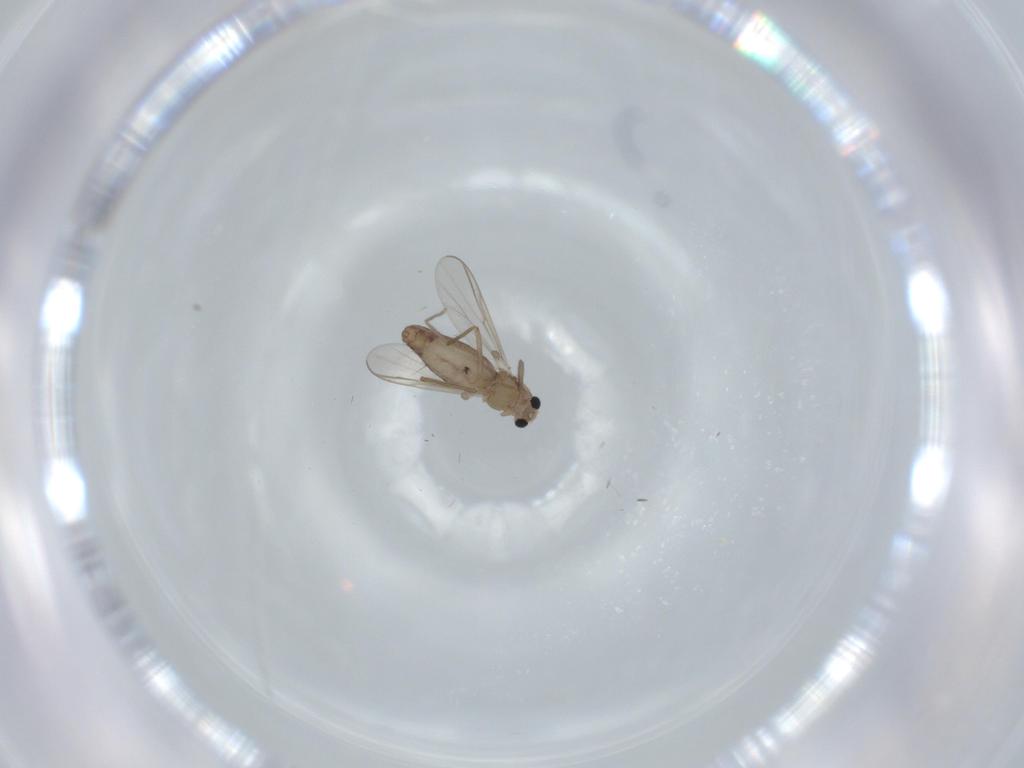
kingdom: Animalia
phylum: Arthropoda
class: Insecta
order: Diptera
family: Chironomidae
